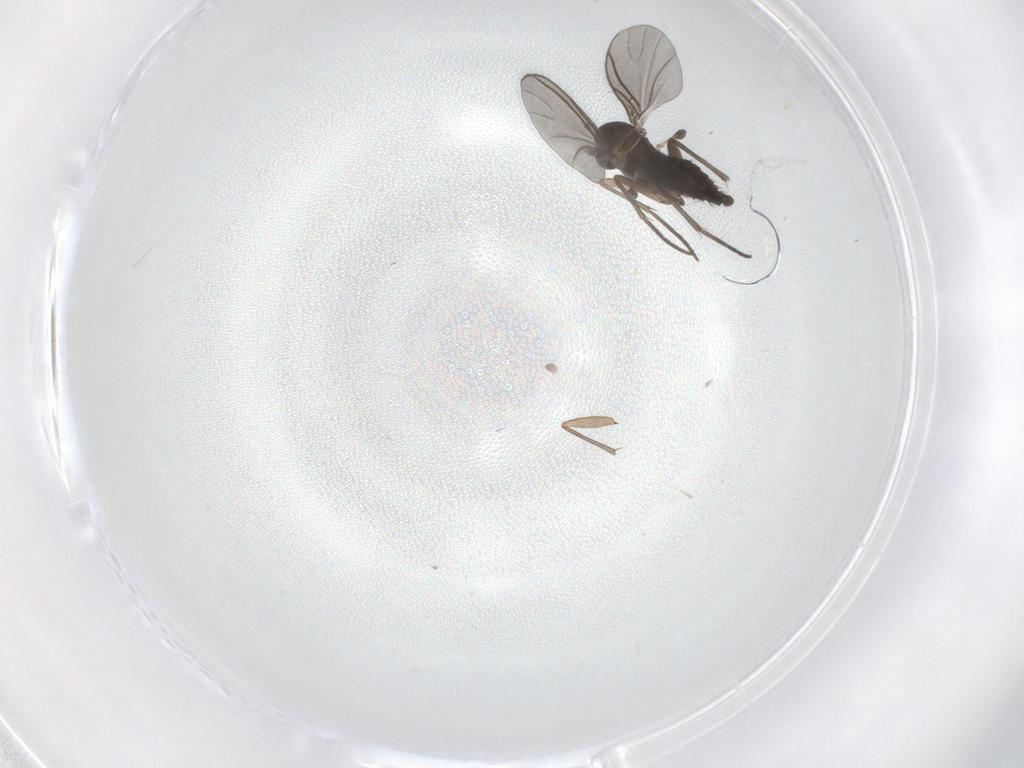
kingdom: Animalia
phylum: Arthropoda
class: Insecta
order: Diptera
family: Sciaridae
